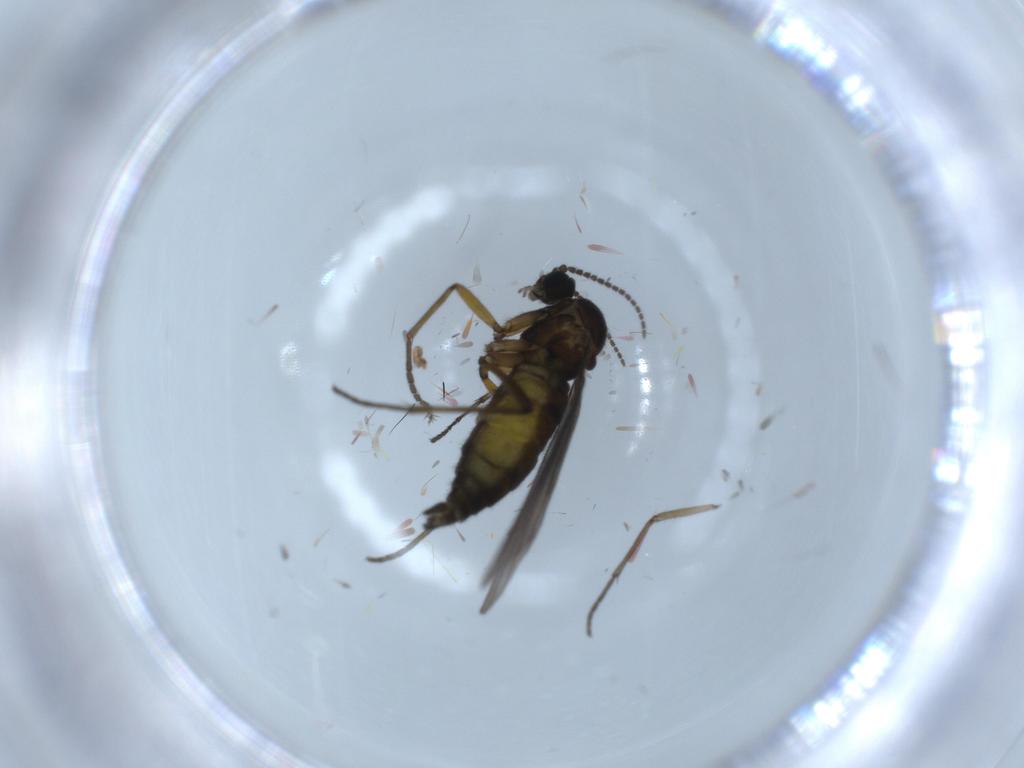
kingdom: Animalia
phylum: Arthropoda
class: Insecta
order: Diptera
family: Sciaridae
